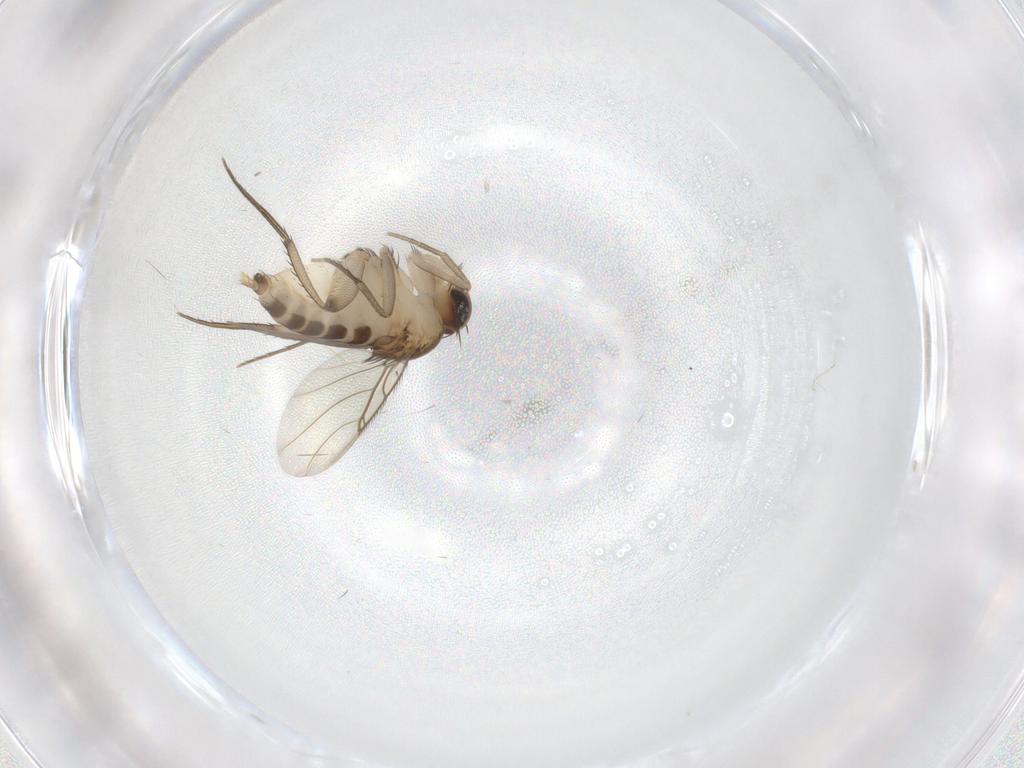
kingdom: Animalia
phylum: Arthropoda
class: Insecta
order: Diptera
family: Phoridae
